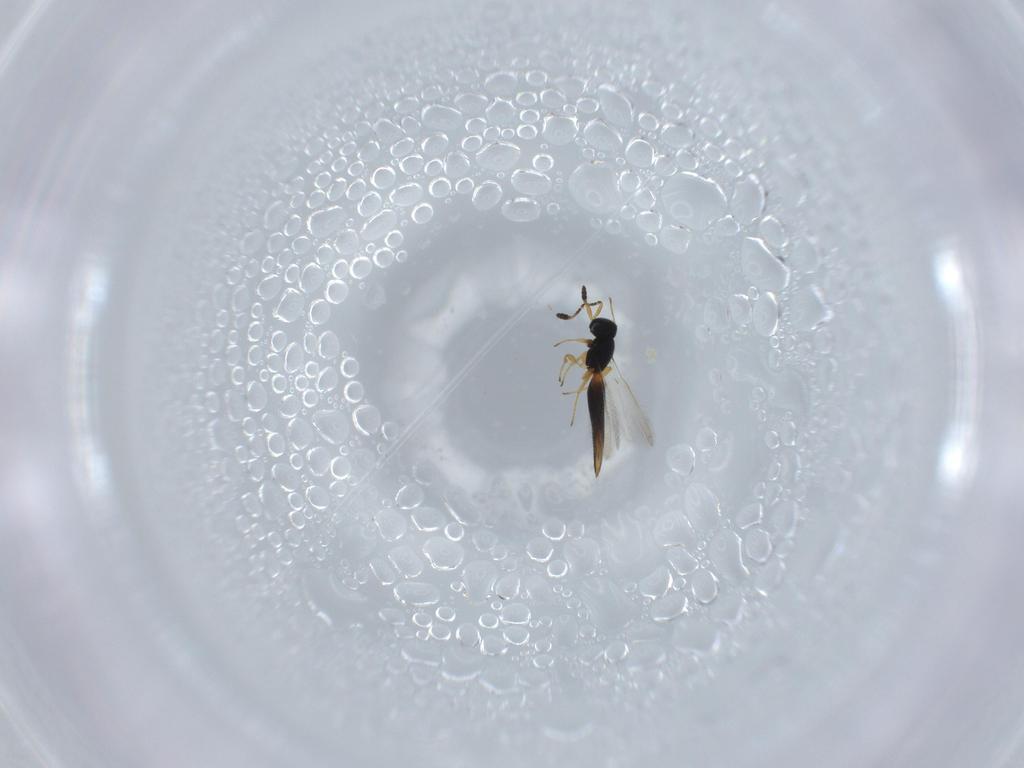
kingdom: Animalia
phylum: Arthropoda
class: Insecta
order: Hymenoptera
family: Scelionidae
